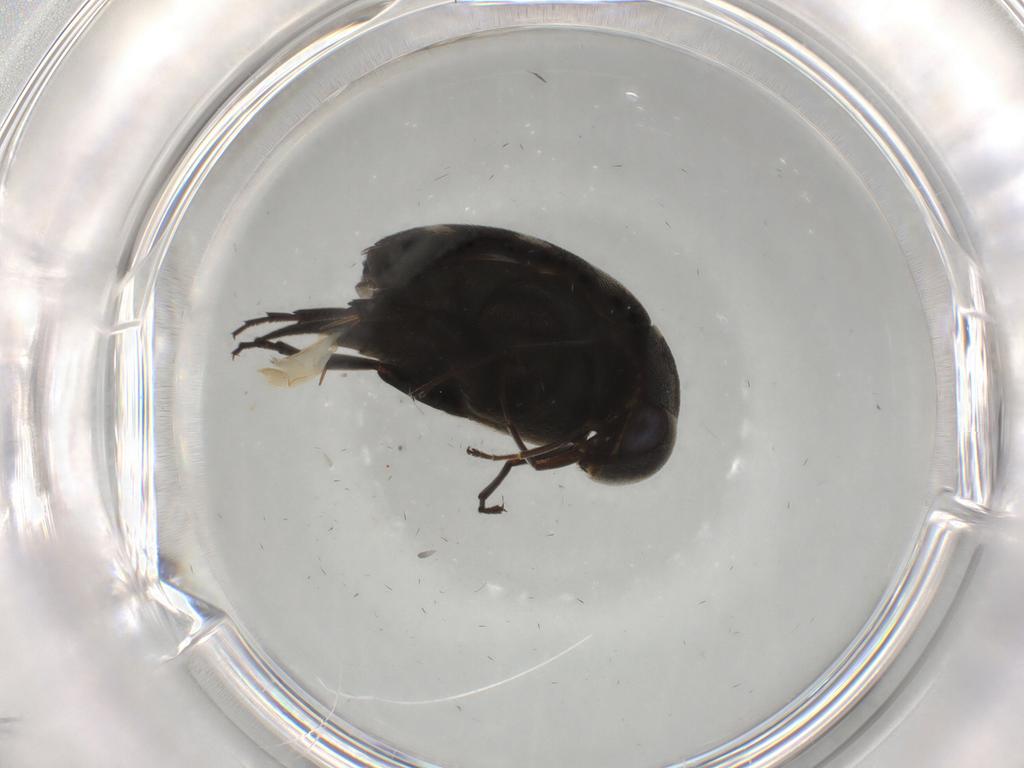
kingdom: Animalia
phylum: Arthropoda
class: Insecta
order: Coleoptera
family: Mordellidae
